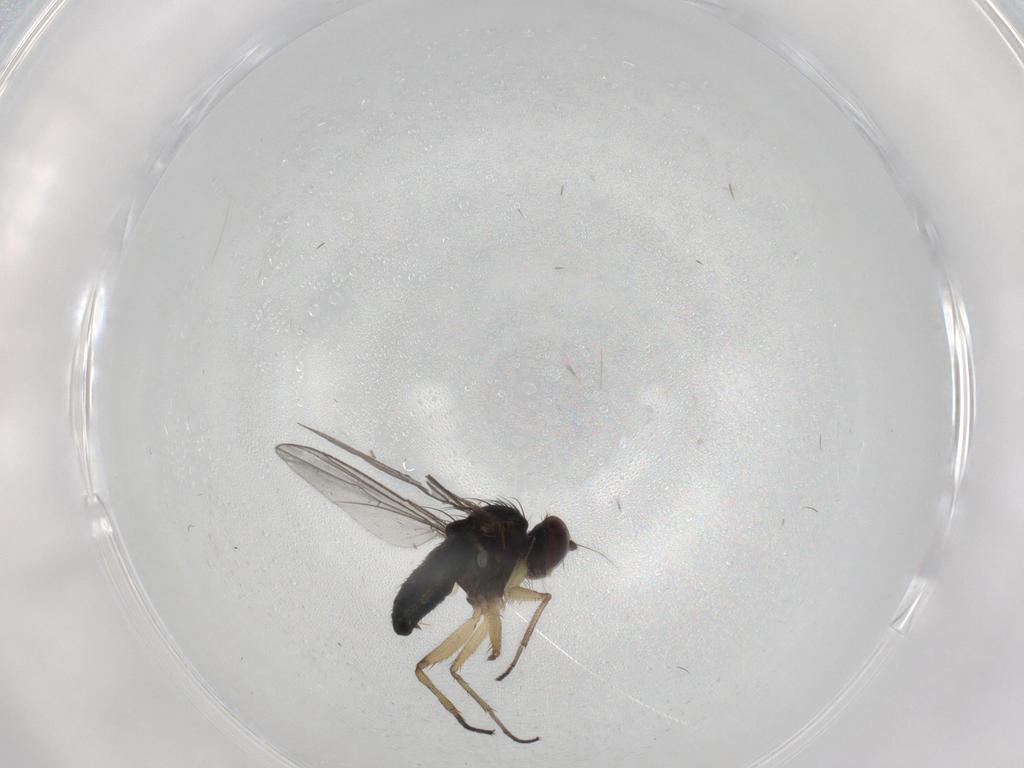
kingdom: Animalia
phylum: Arthropoda
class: Insecta
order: Diptera
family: Dolichopodidae
